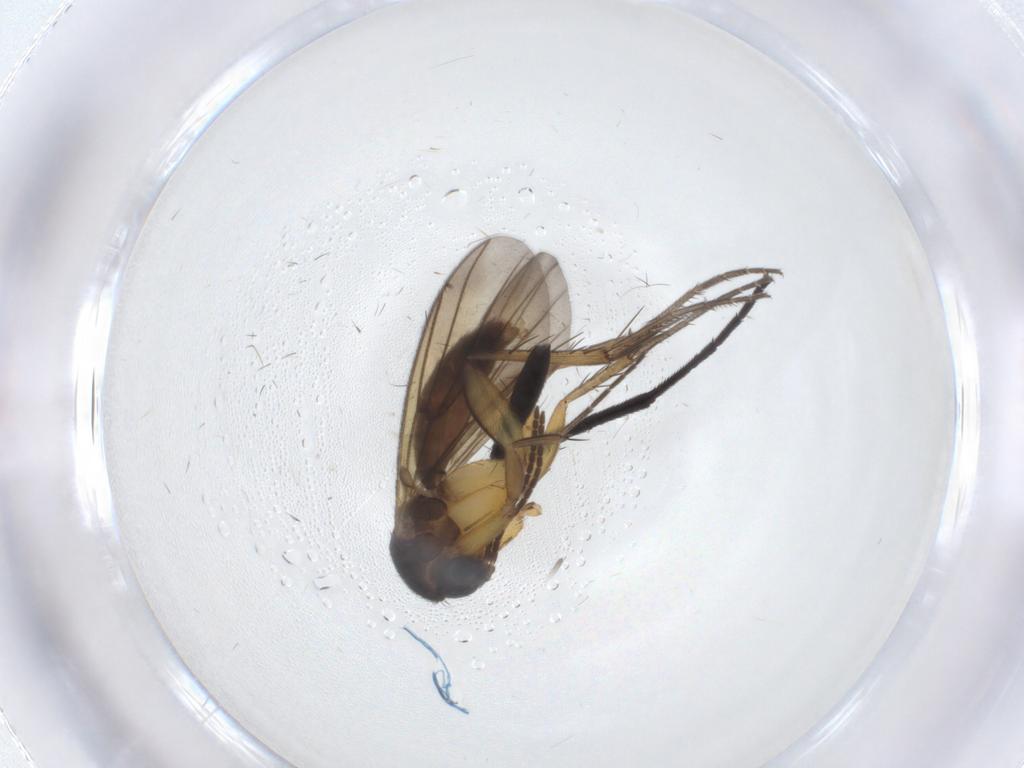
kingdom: Animalia
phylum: Arthropoda
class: Insecta
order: Diptera
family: Mycetophilidae
